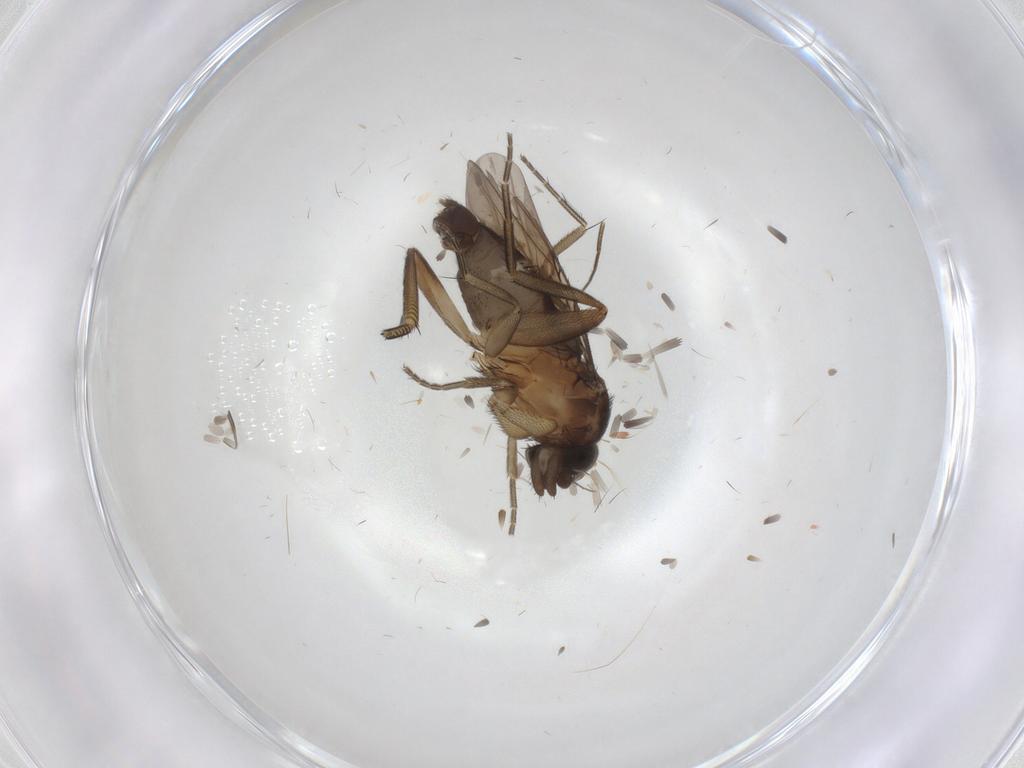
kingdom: Animalia
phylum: Arthropoda
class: Insecta
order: Diptera
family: Phoridae
